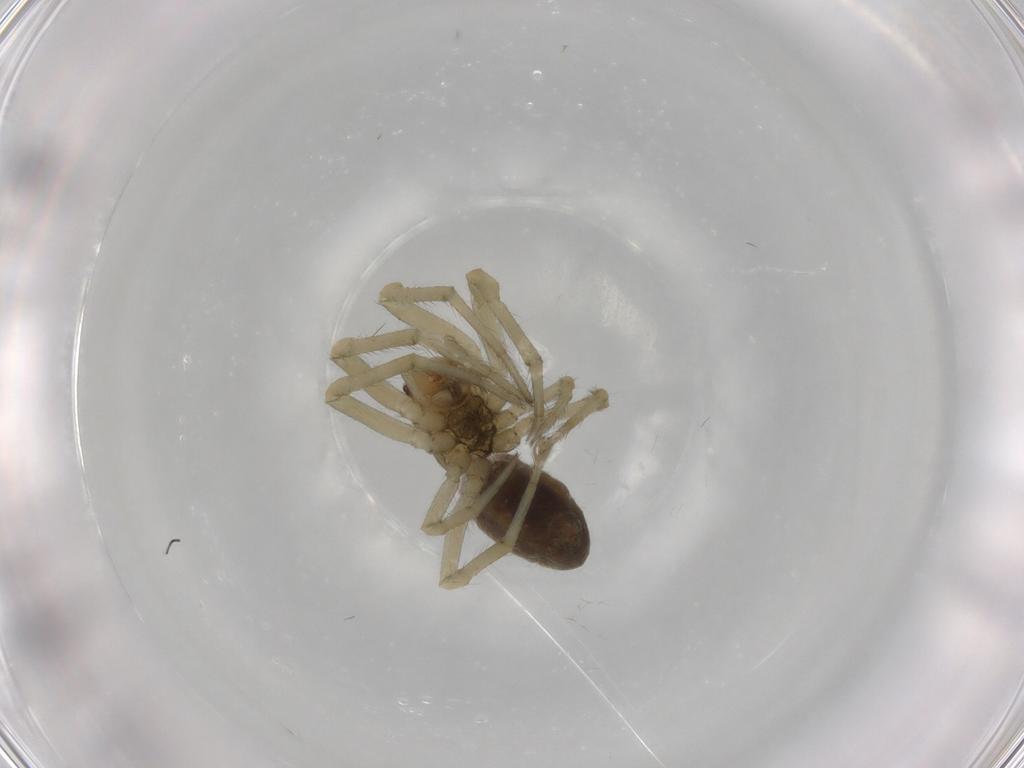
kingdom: Animalia
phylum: Arthropoda
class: Arachnida
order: Araneae
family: Araneidae
